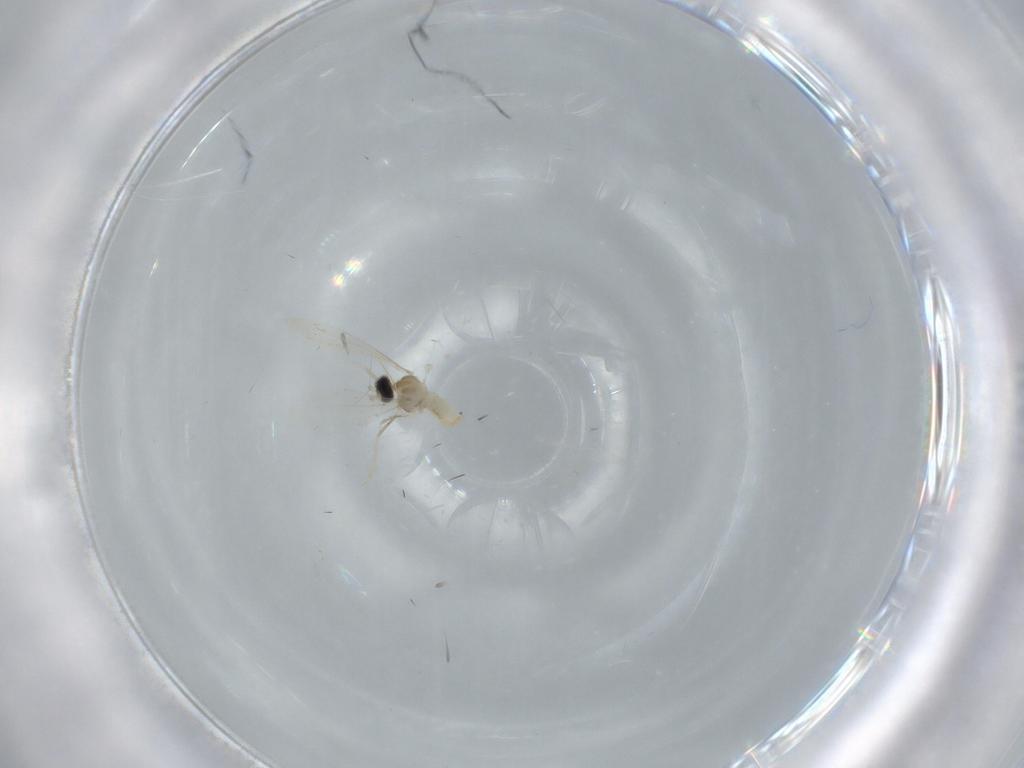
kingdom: Animalia
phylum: Arthropoda
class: Insecta
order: Diptera
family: Cecidomyiidae
